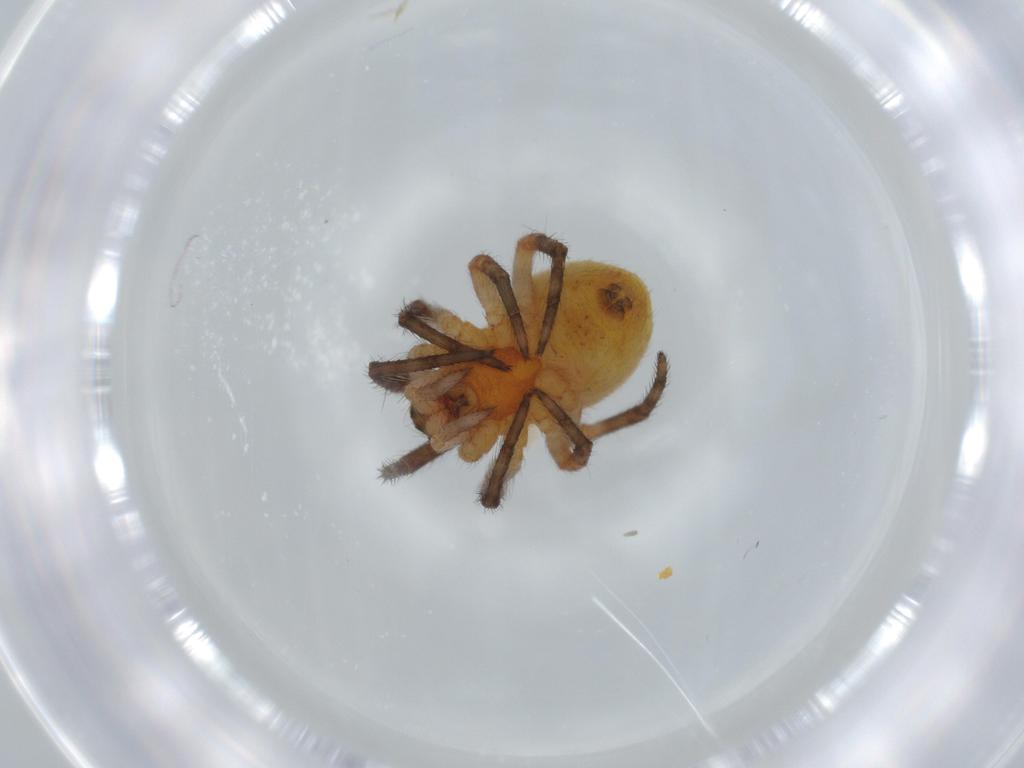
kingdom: Animalia
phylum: Arthropoda
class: Arachnida
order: Araneae
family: Araneidae
